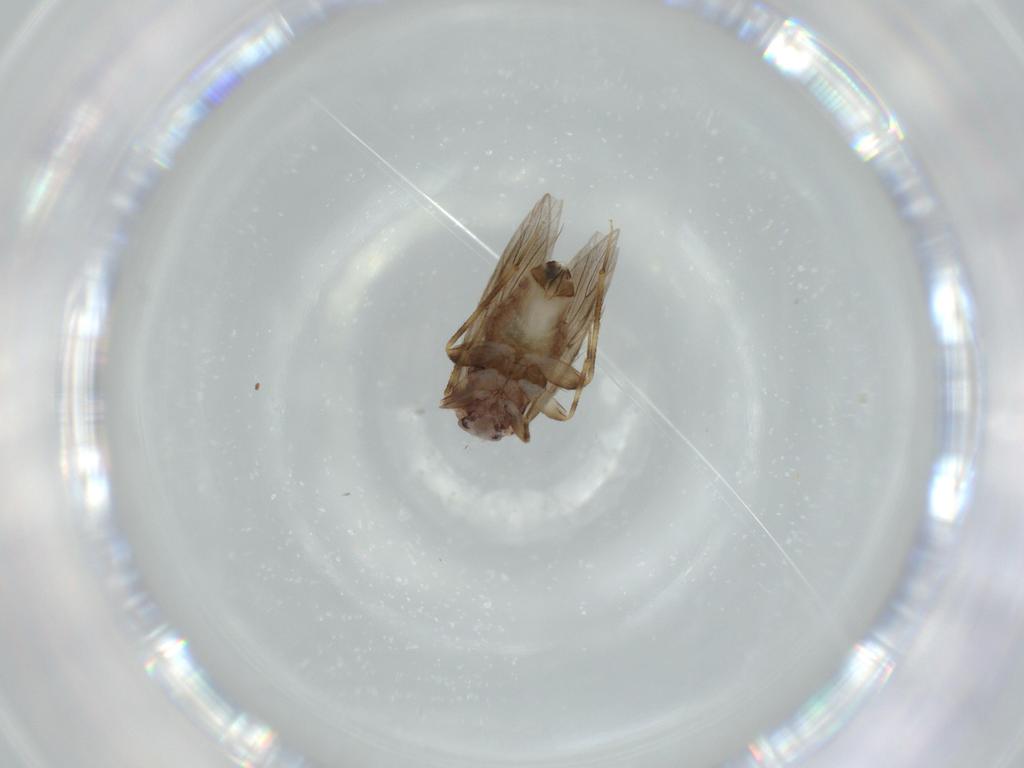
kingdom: Animalia
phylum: Arthropoda
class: Insecta
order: Psocodea
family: Lepidopsocidae
